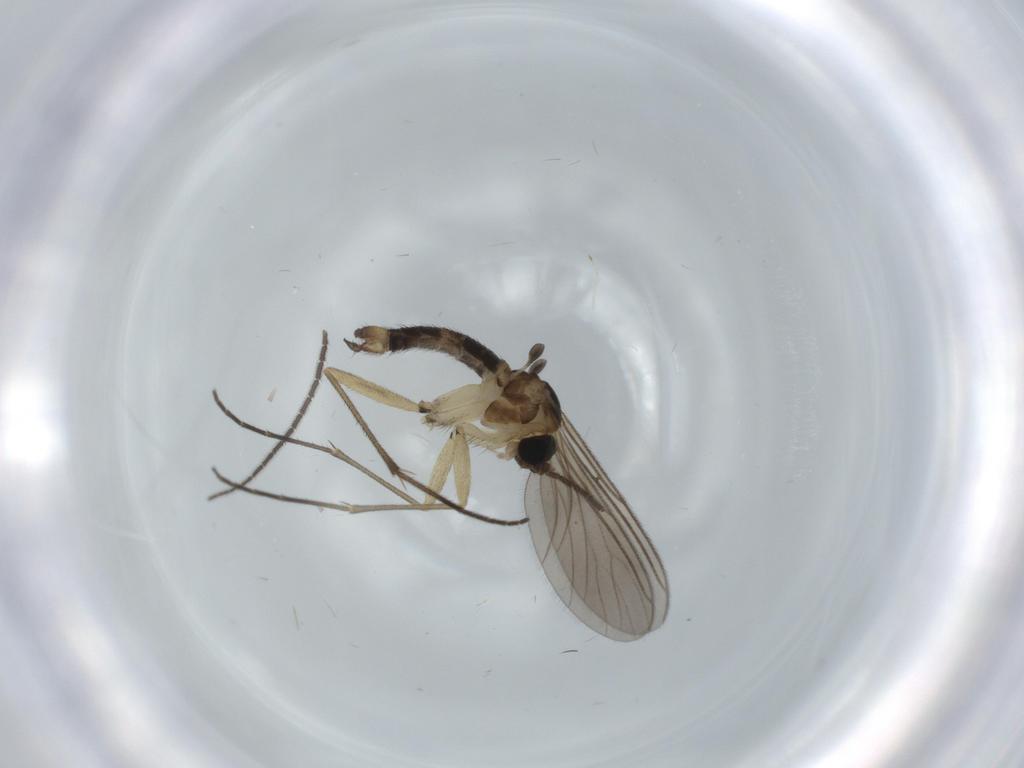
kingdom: Animalia
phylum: Arthropoda
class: Insecta
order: Diptera
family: Sciaridae
